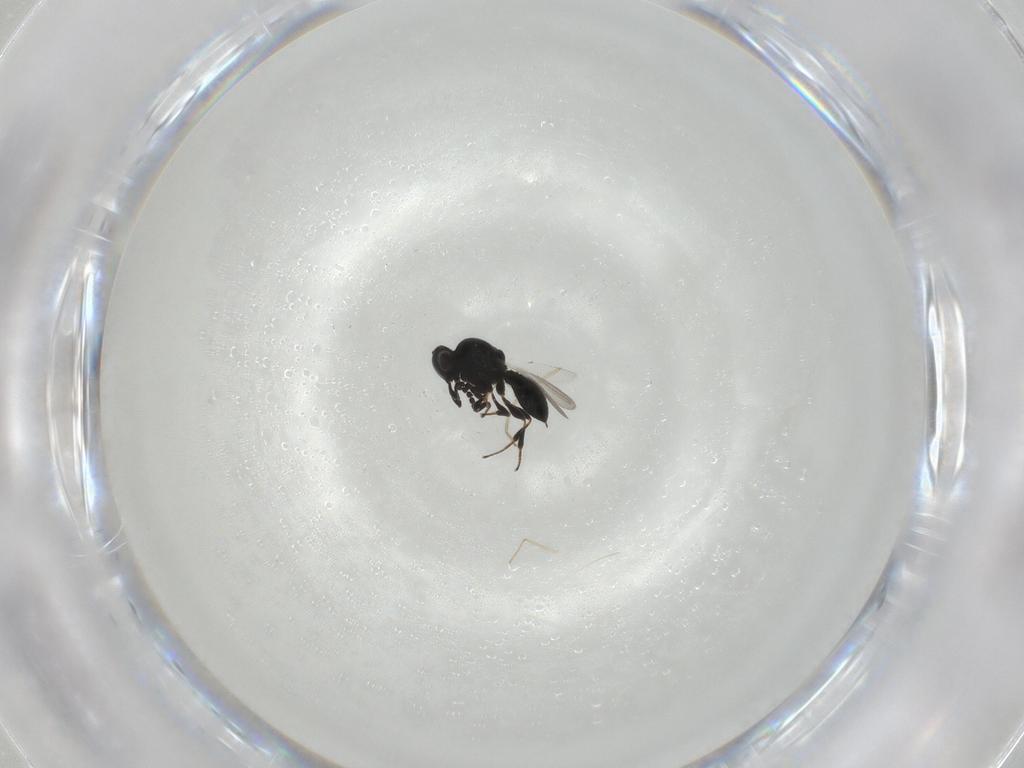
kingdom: Animalia
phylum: Arthropoda
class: Insecta
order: Hymenoptera
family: Platygastridae
